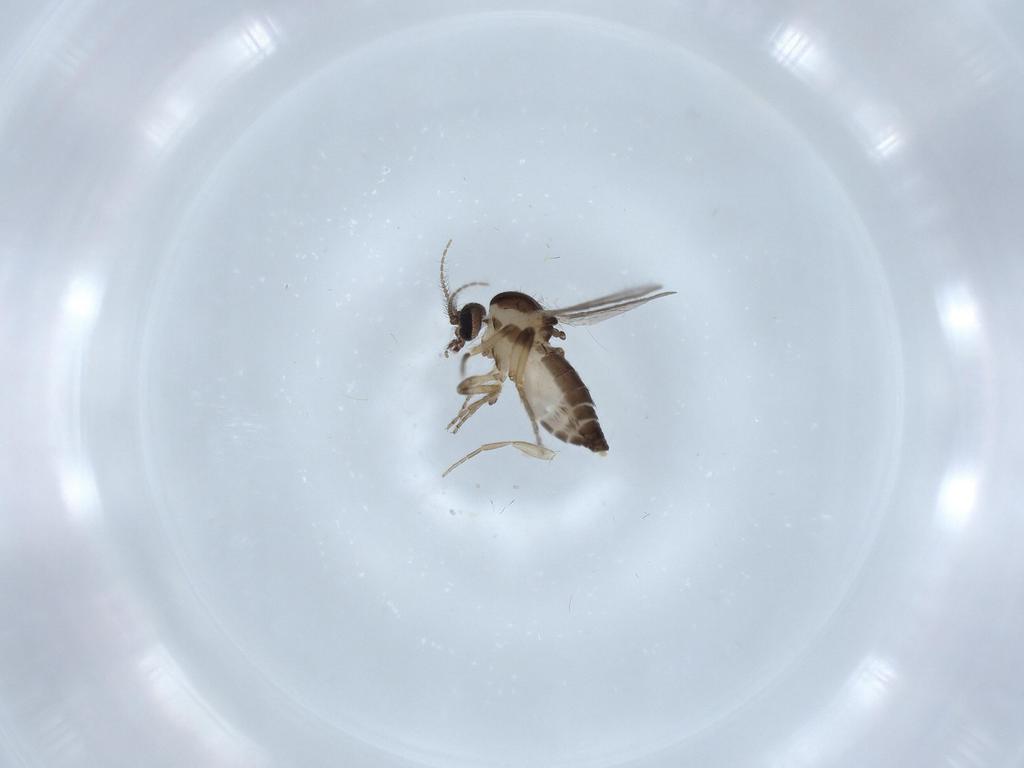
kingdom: Animalia
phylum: Arthropoda
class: Insecta
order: Diptera
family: Ceratopogonidae
